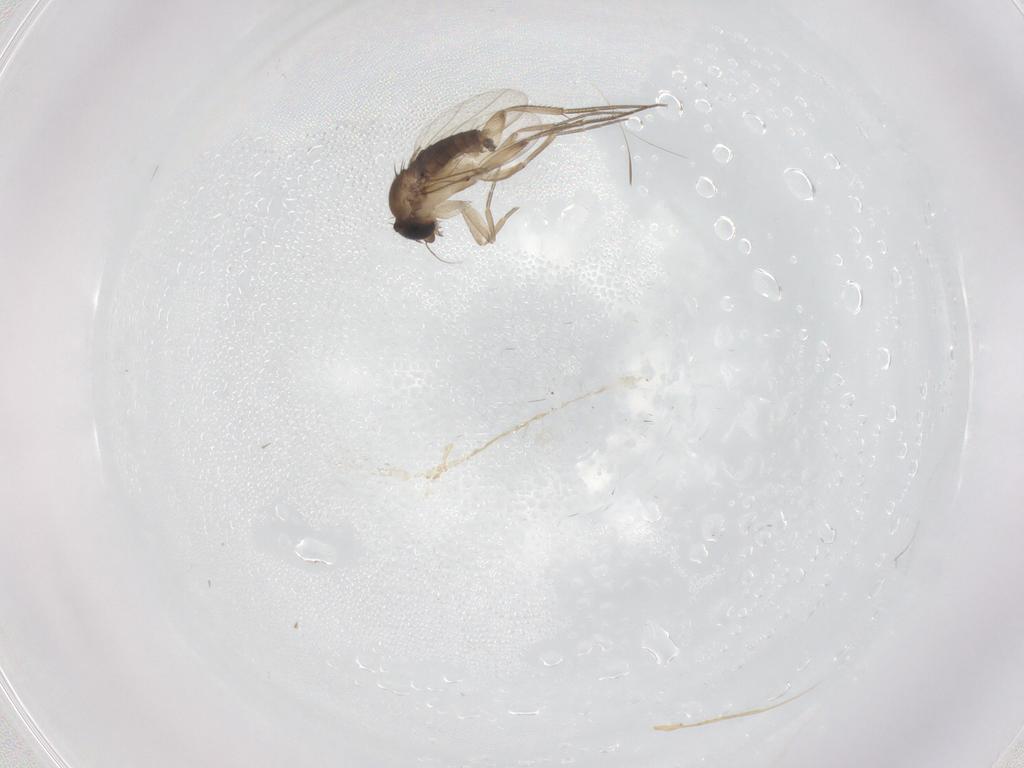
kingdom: Animalia
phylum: Arthropoda
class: Insecta
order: Diptera
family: Phoridae
